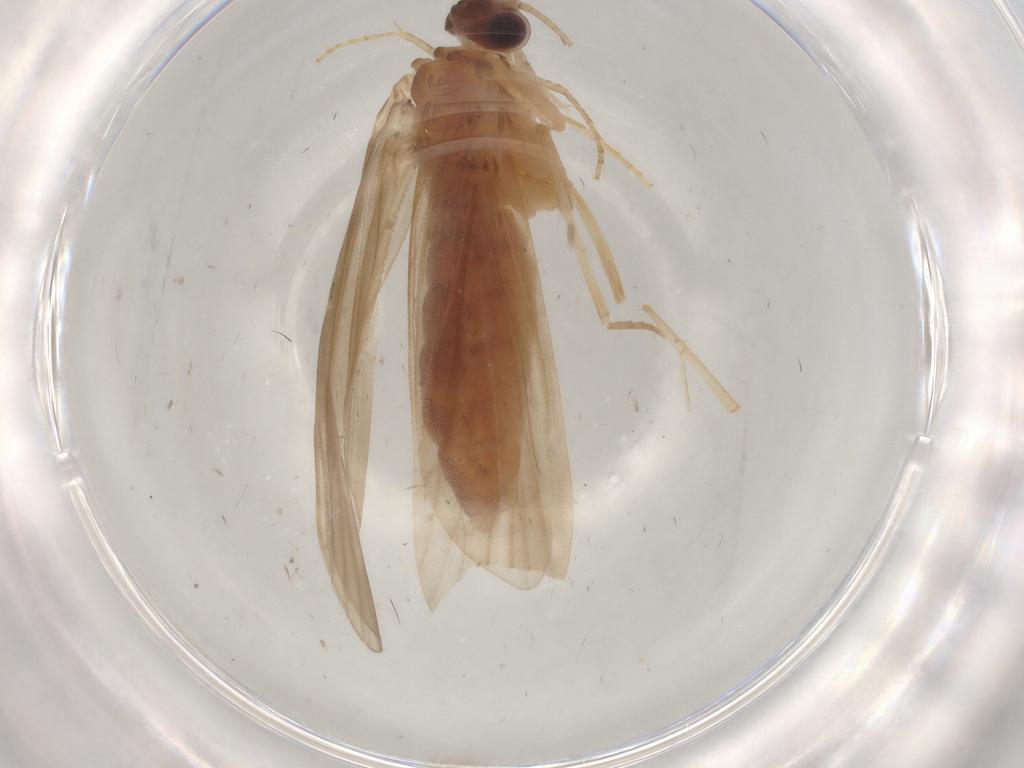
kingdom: Animalia
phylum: Arthropoda
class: Insecta
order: Trichoptera
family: Ecnomidae
